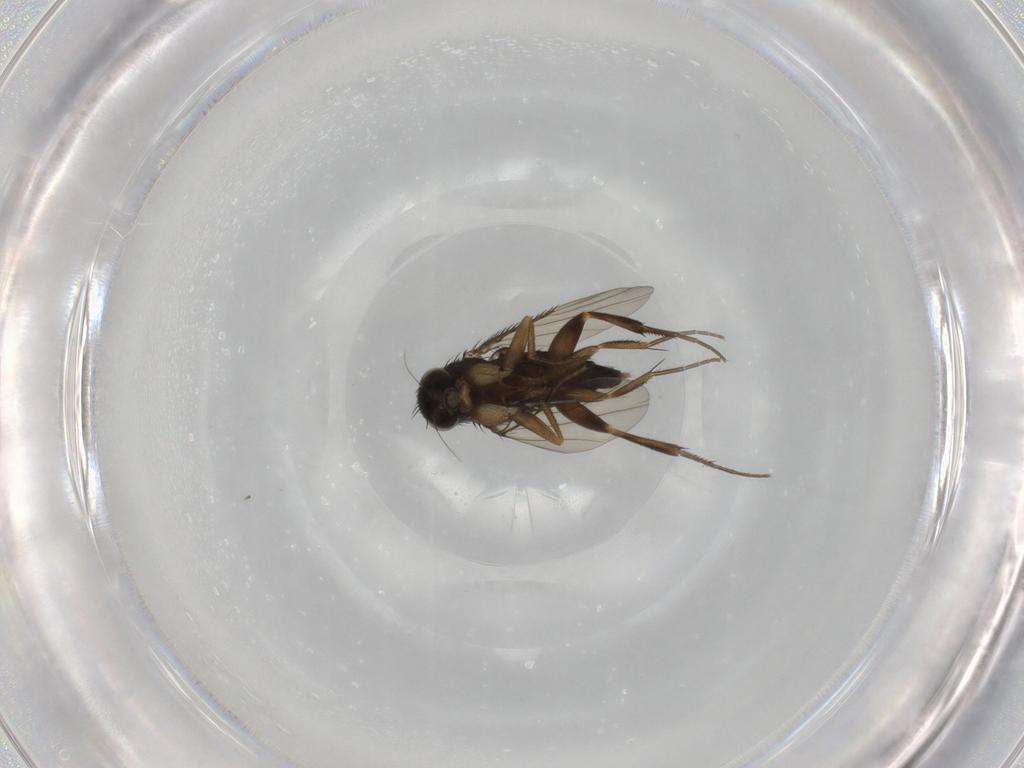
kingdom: Animalia
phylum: Arthropoda
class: Insecta
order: Diptera
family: Phoridae
